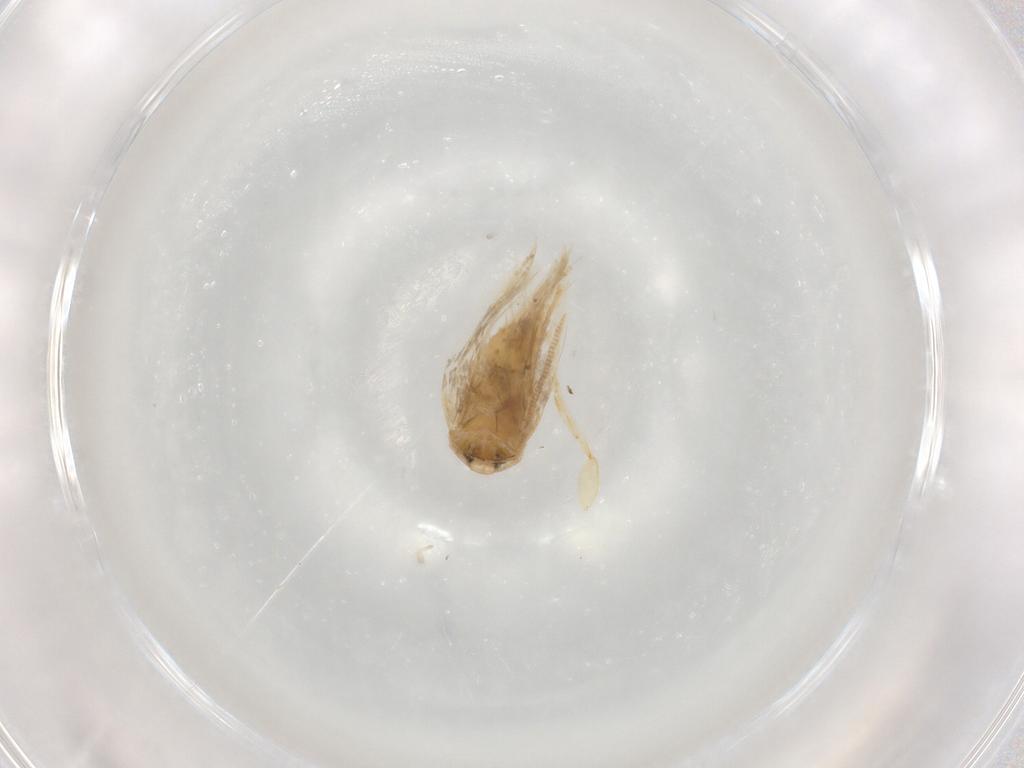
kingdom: Animalia
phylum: Arthropoda
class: Insecta
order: Lepidoptera
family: Opostegidae
